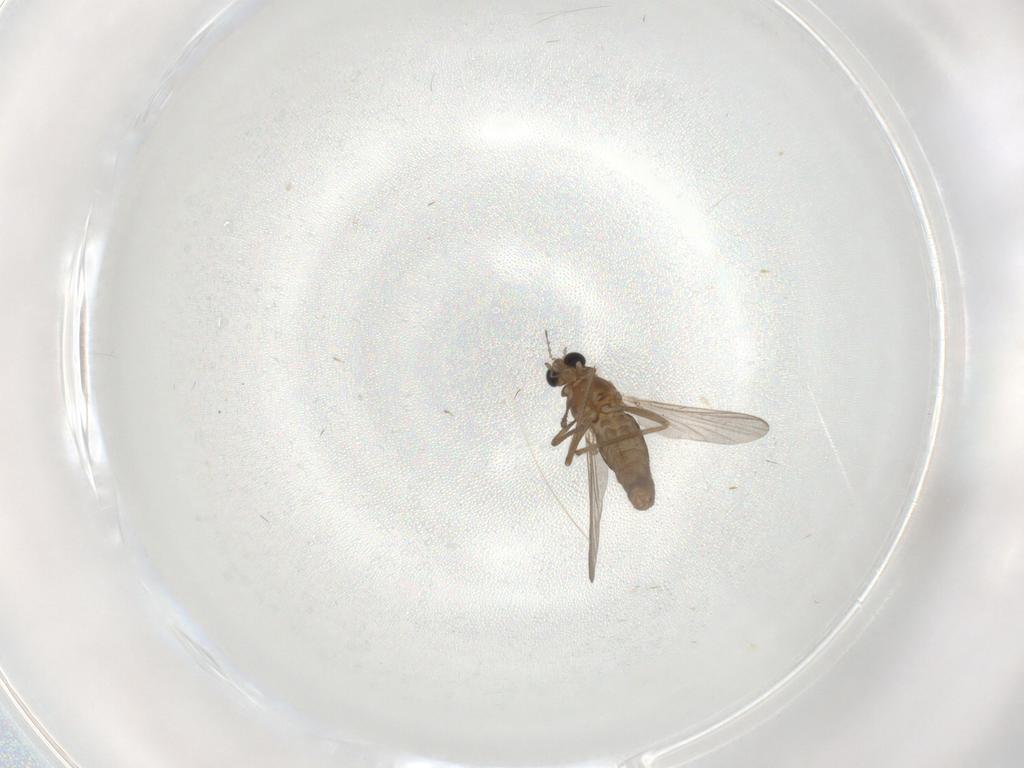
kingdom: Animalia
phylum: Arthropoda
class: Insecta
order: Diptera
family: Chironomidae
